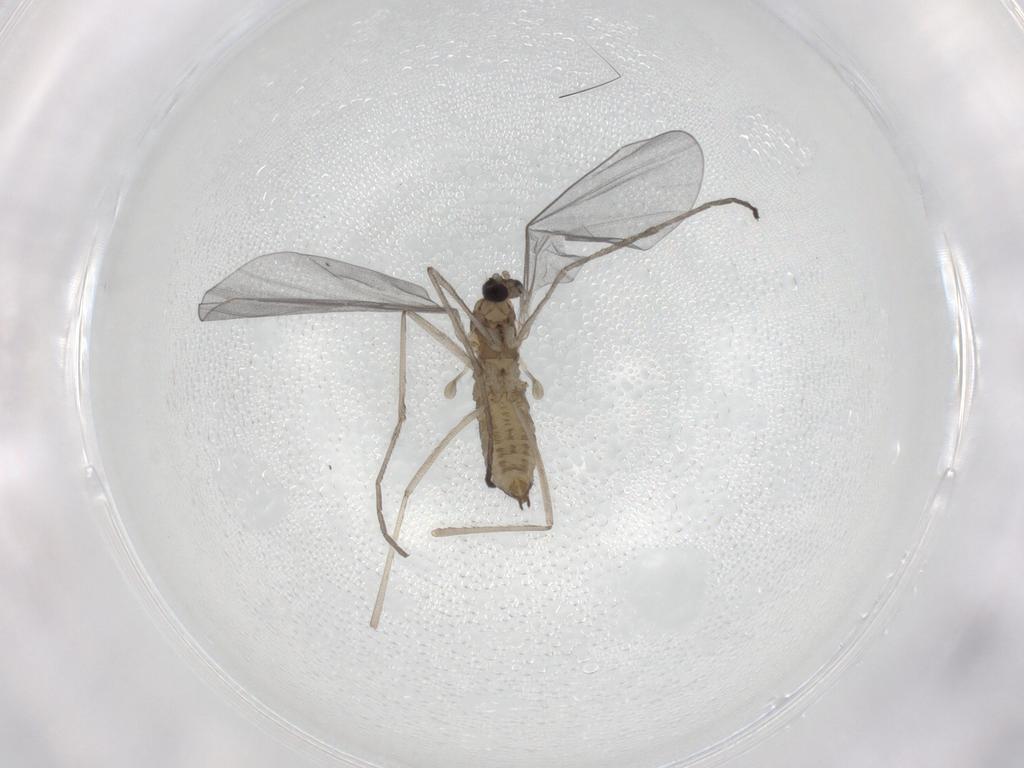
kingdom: Animalia
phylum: Arthropoda
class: Insecta
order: Diptera
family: Cecidomyiidae
